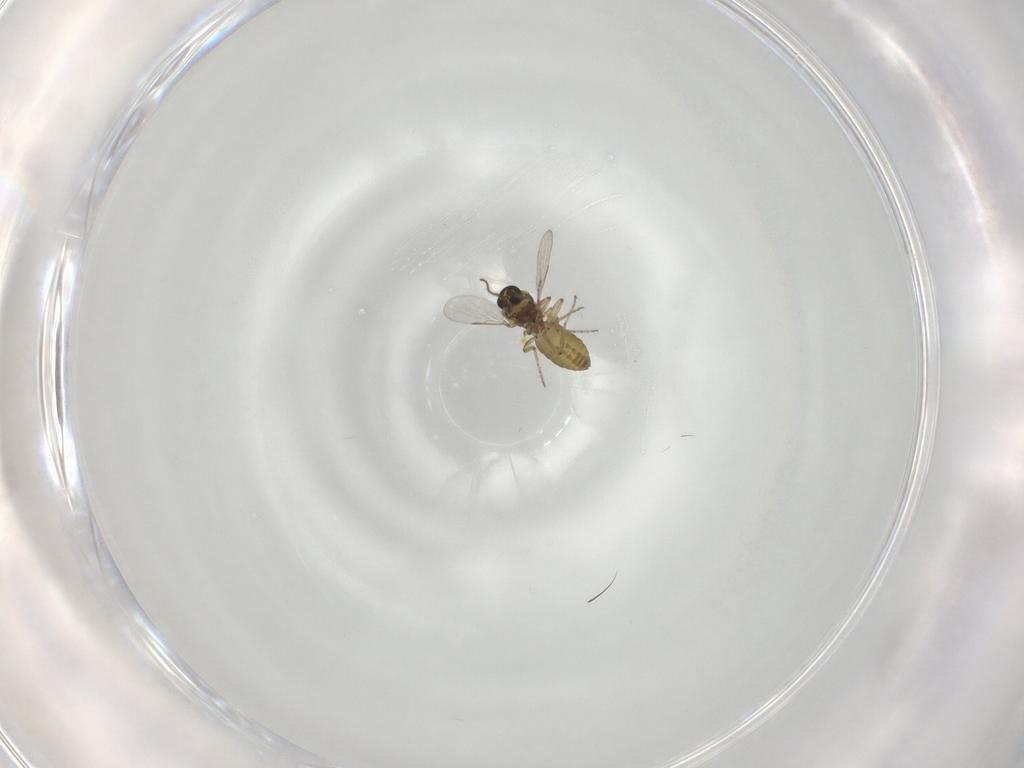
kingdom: Animalia
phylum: Arthropoda
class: Insecta
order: Diptera
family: Ceratopogonidae
